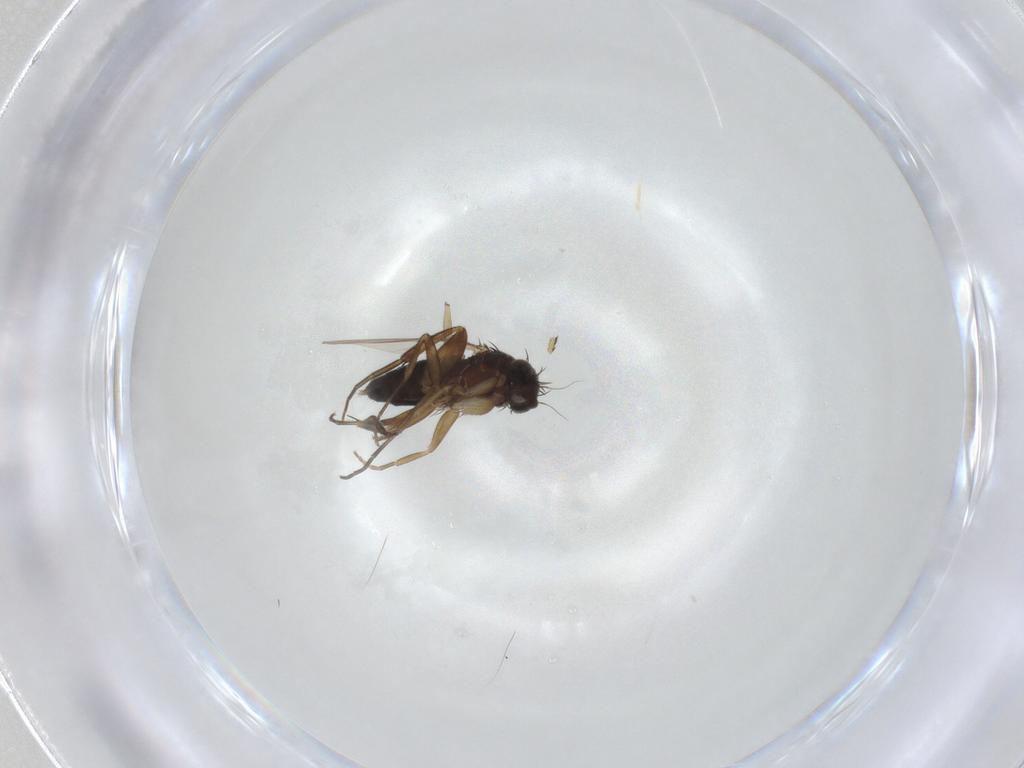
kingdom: Animalia
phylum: Arthropoda
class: Insecta
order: Diptera
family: Phoridae
